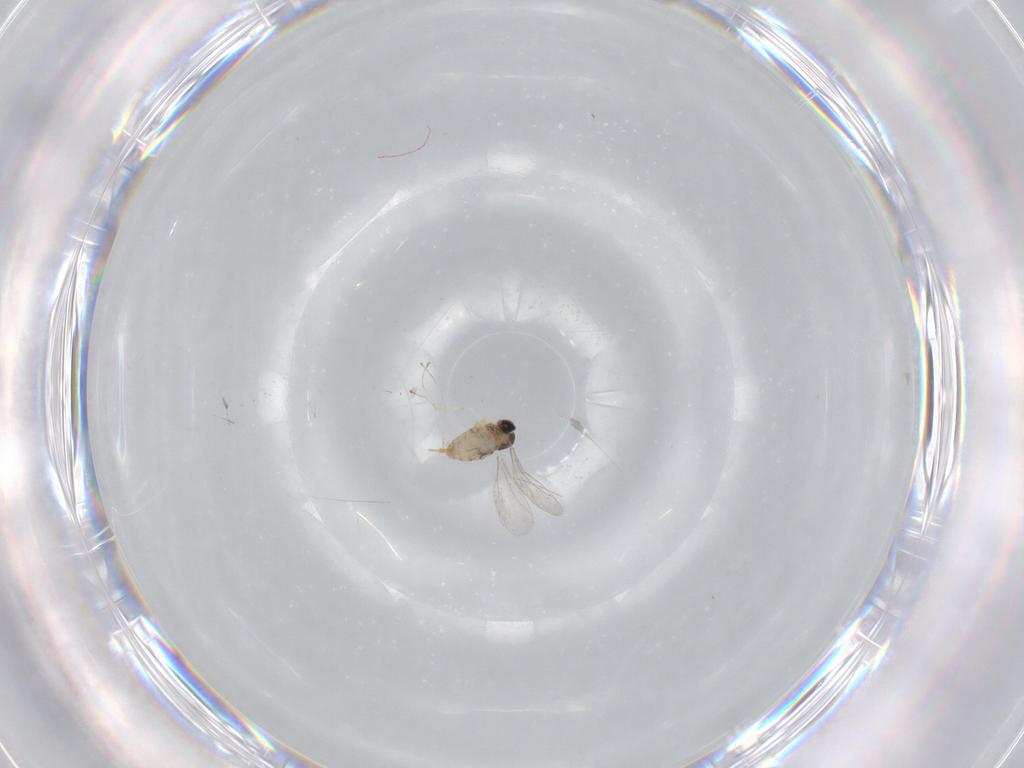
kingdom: Animalia
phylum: Arthropoda
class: Insecta
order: Diptera
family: Cecidomyiidae
